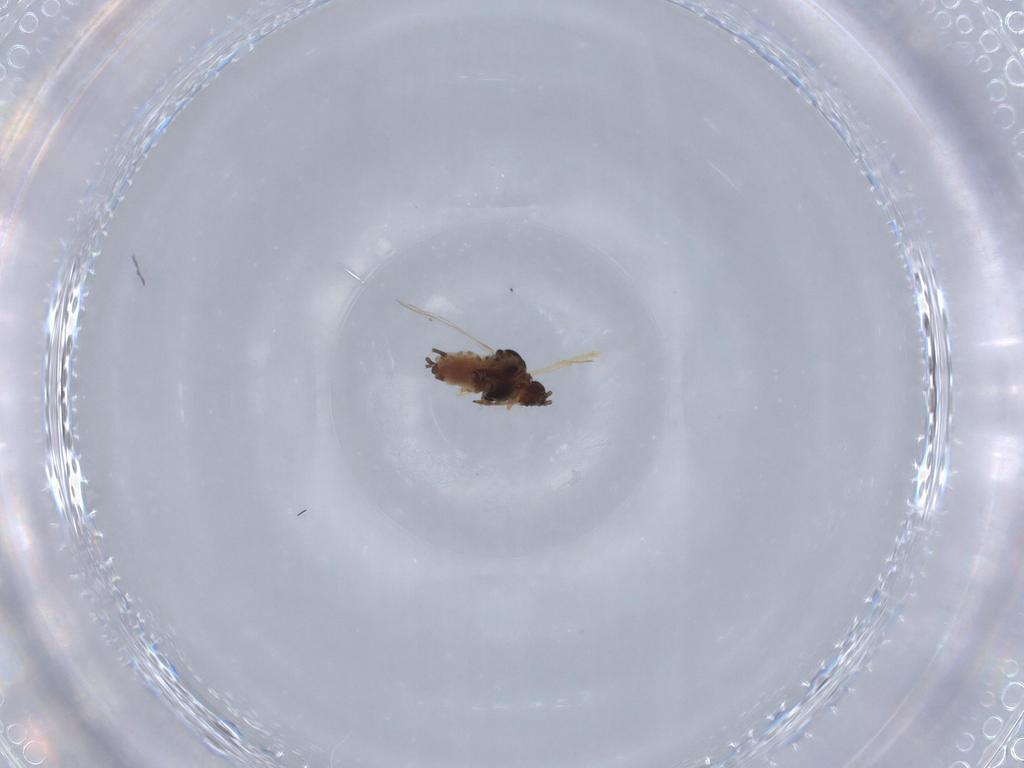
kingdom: Animalia
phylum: Arthropoda
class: Insecta
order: Hemiptera
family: Aphididae
